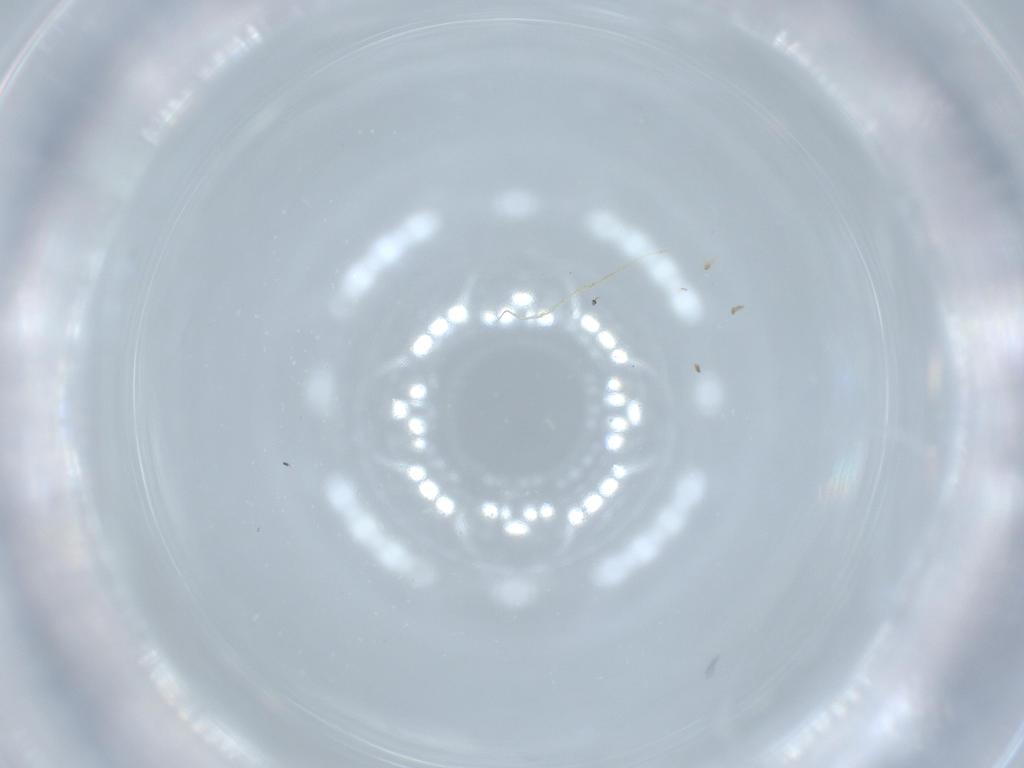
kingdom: Animalia
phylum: Arthropoda
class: Insecta
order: Diptera
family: Cecidomyiidae
